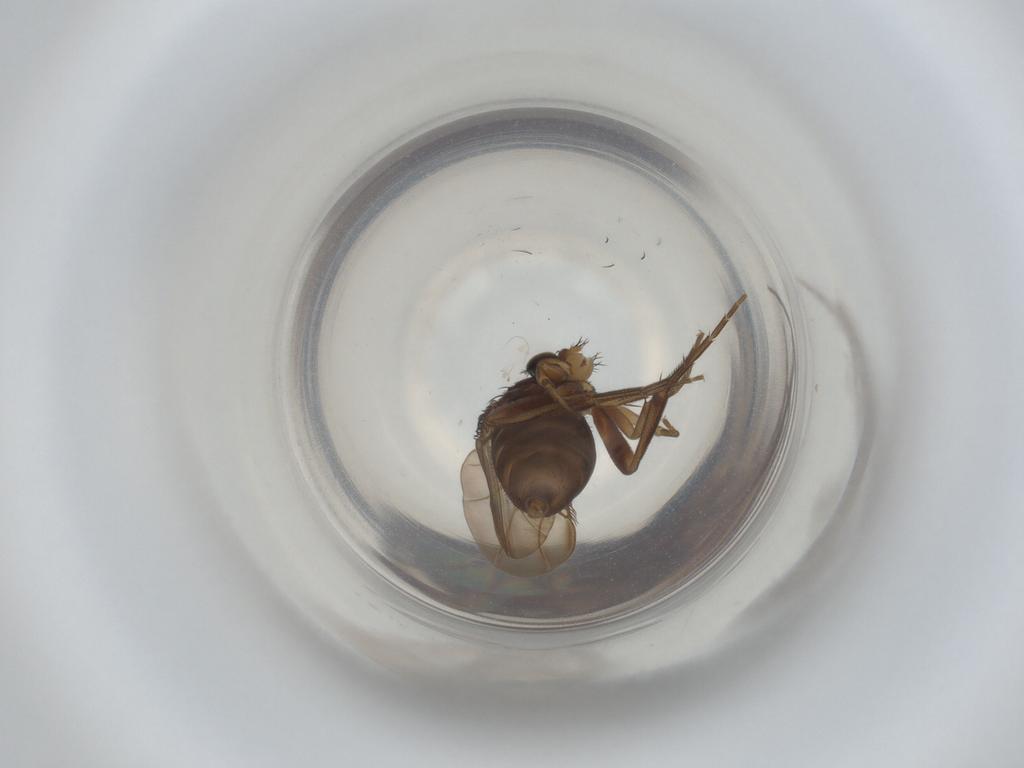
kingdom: Animalia
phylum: Arthropoda
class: Insecta
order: Diptera
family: Phoridae
